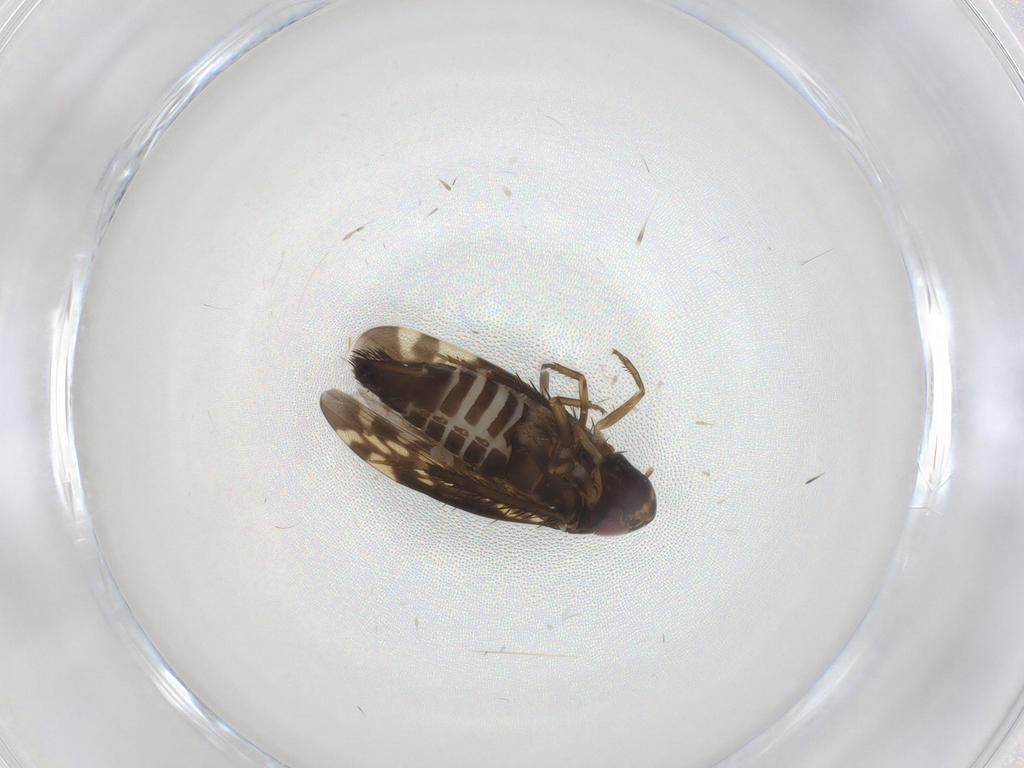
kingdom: Animalia
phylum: Arthropoda
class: Insecta
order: Hemiptera
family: Cicadellidae
